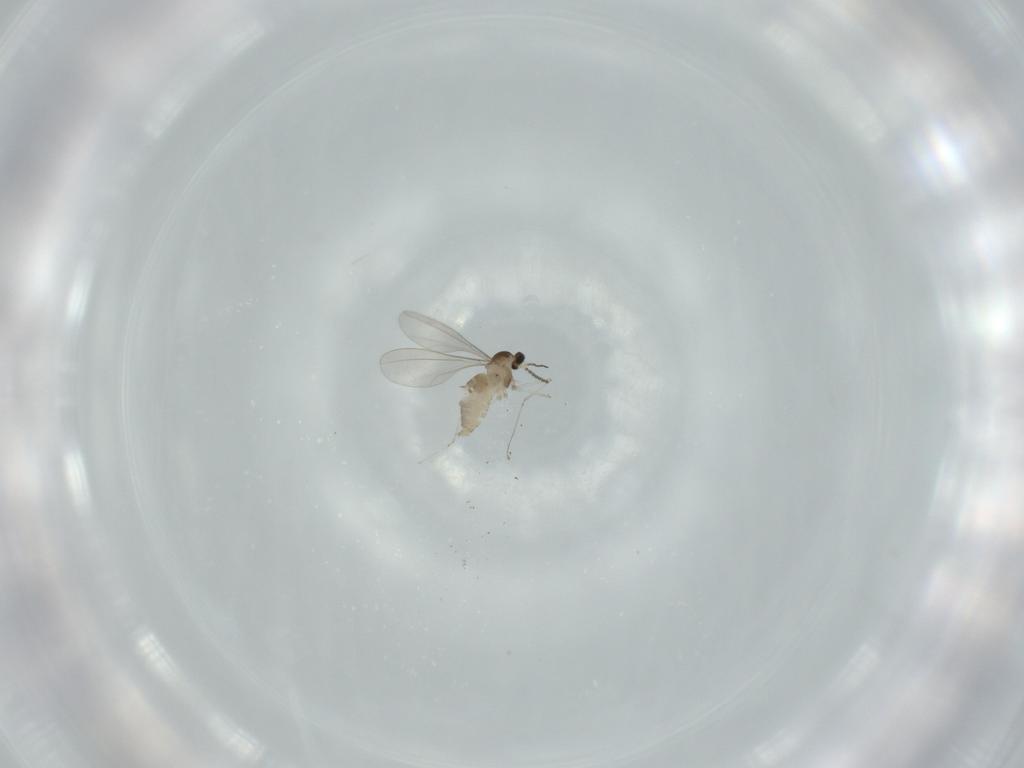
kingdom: Animalia
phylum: Arthropoda
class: Insecta
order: Diptera
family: Cecidomyiidae
